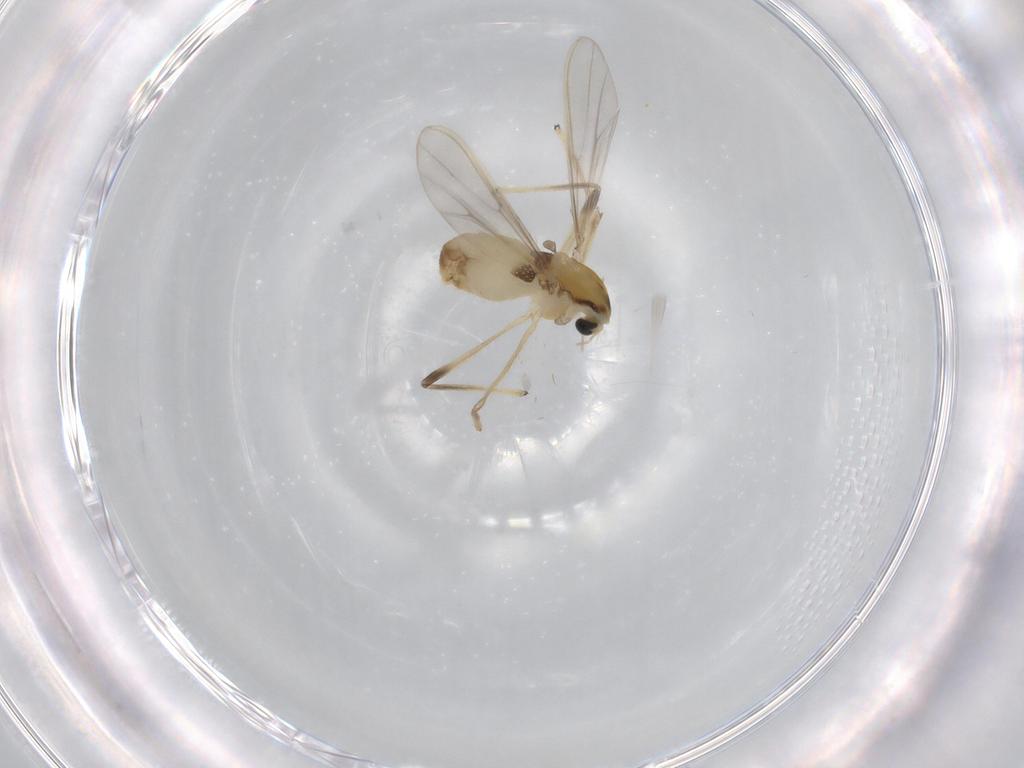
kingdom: Animalia
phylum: Arthropoda
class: Insecta
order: Diptera
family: Chironomidae
